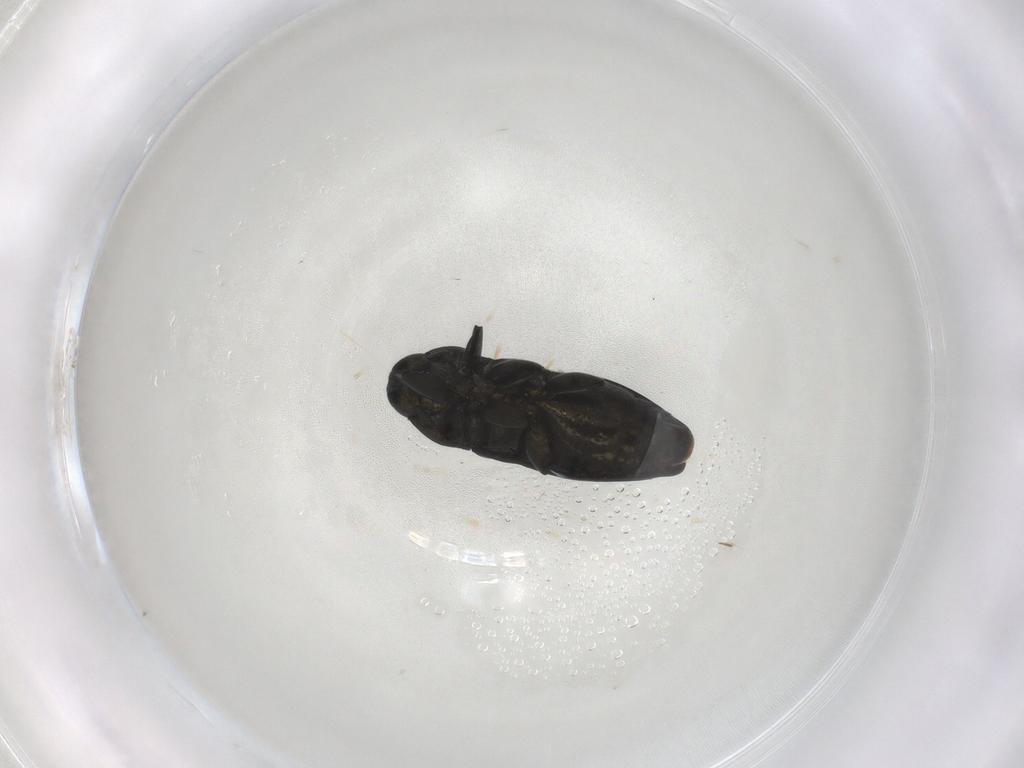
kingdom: Animalia
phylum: Arthropoda
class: Insecta
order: Coleoptera
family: Buprestidae
